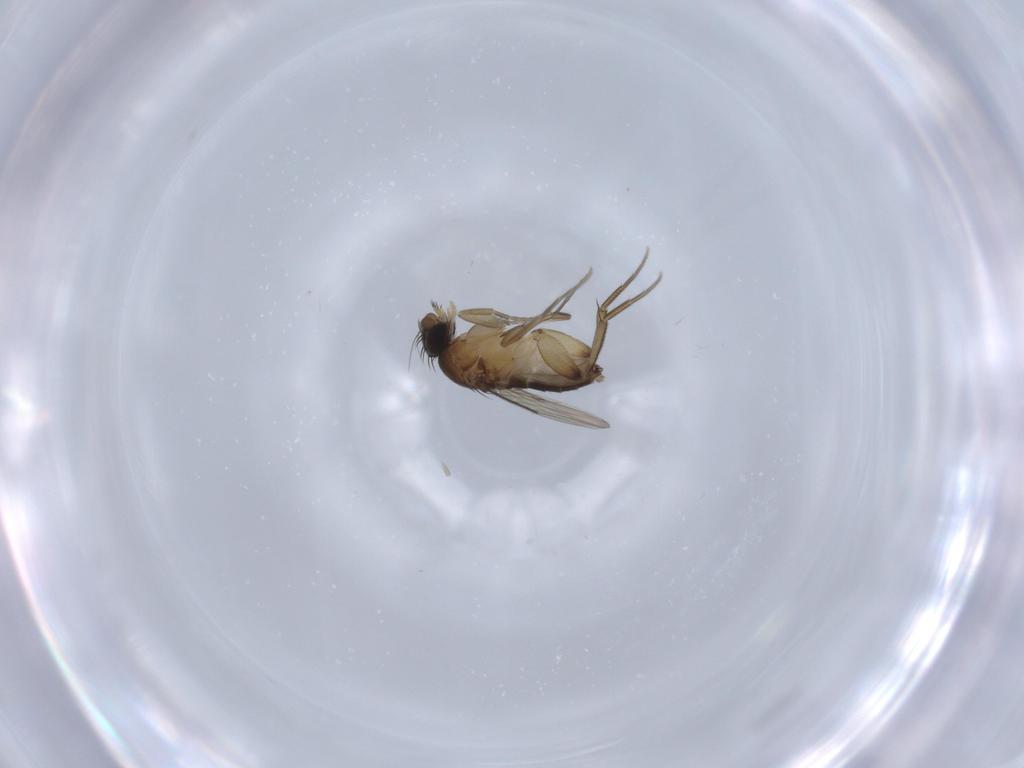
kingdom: Animalia
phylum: Arthropoda
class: Insecta
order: Diptera
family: Phoridae
